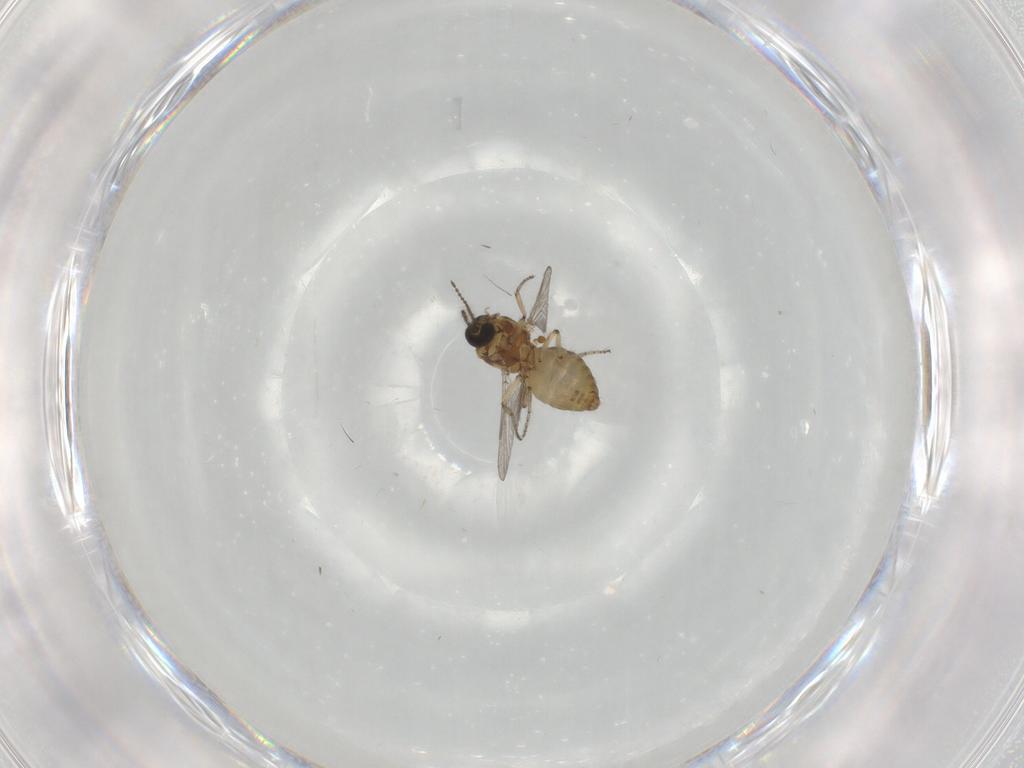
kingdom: Animalia
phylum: Arthropoda
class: Insecta
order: Diptera
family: Ceratopogonidae
